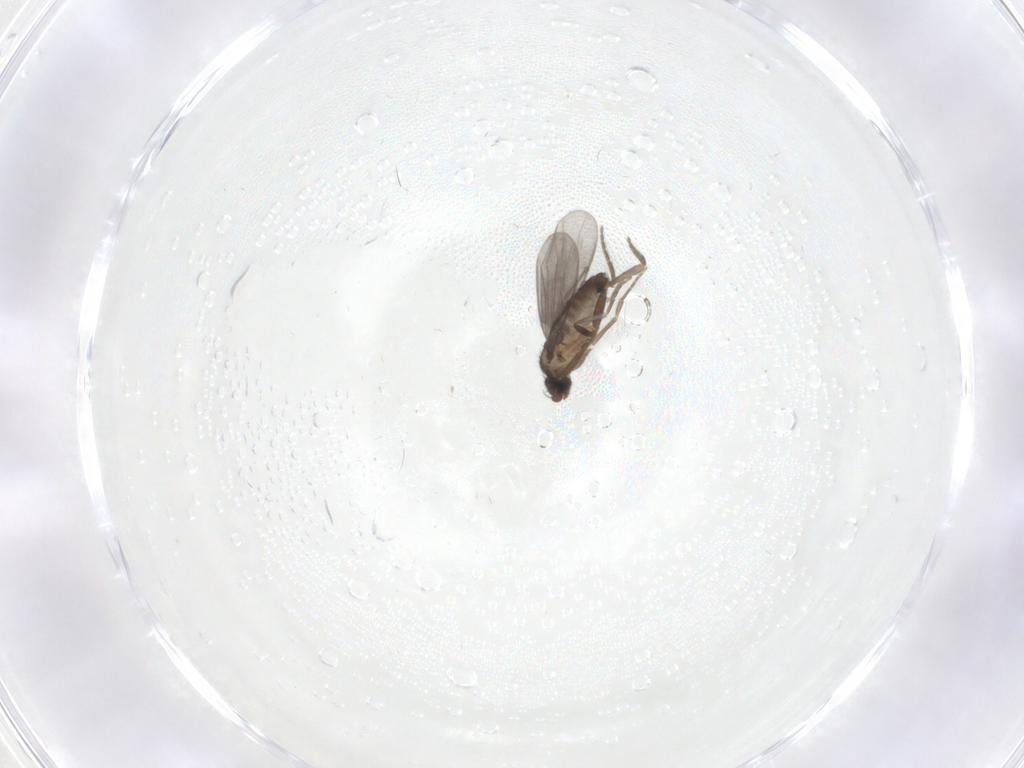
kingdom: Animalia
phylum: Arthropoda
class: Insecta
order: Diptera
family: Phoridae
